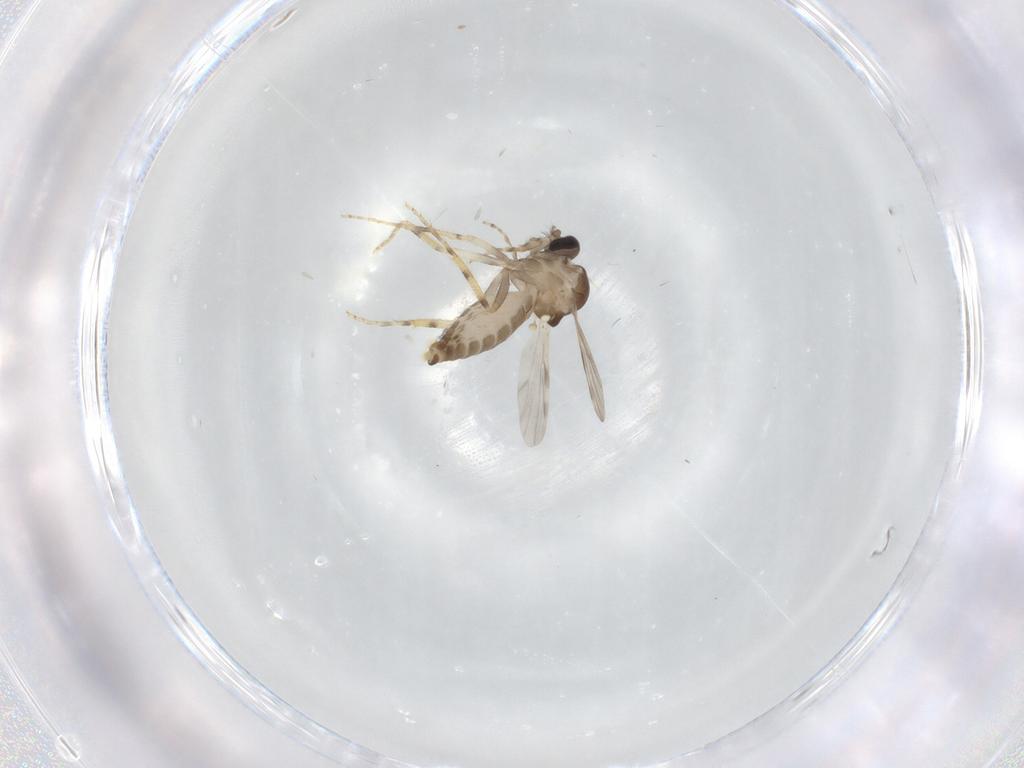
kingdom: Animalia
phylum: Arthropoda
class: Insecta
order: Diptera
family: Ceratopogonidae
